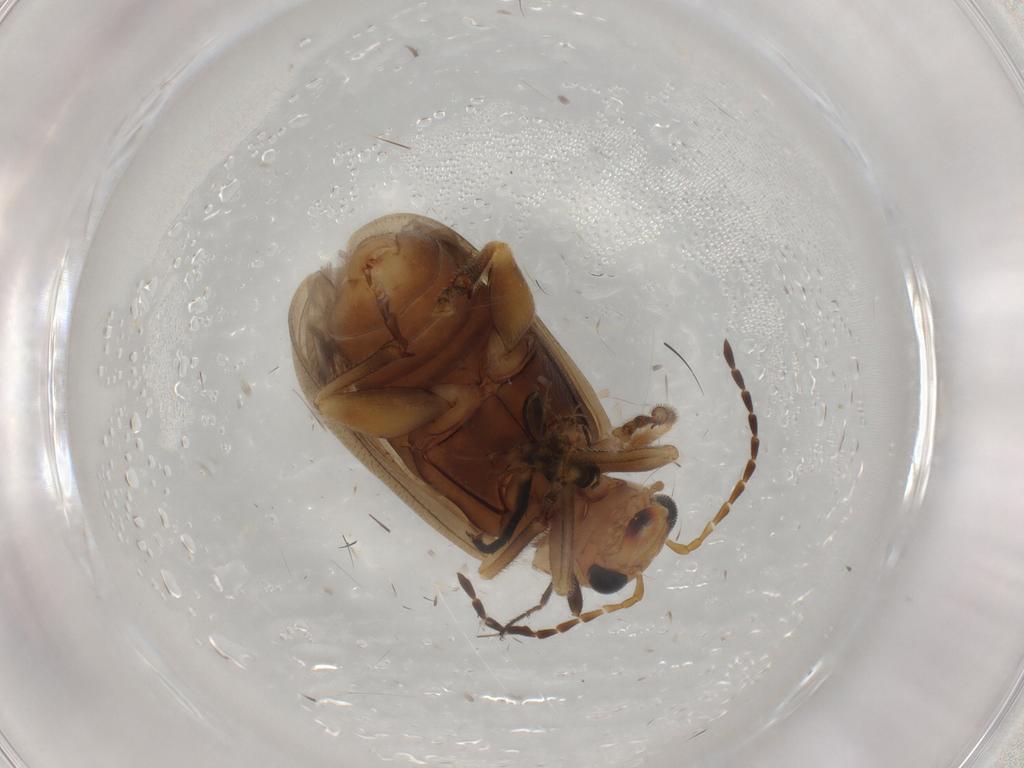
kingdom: Animalia
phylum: Arthropoda
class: Insecta
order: Coleoptera
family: Chrysomelidae
